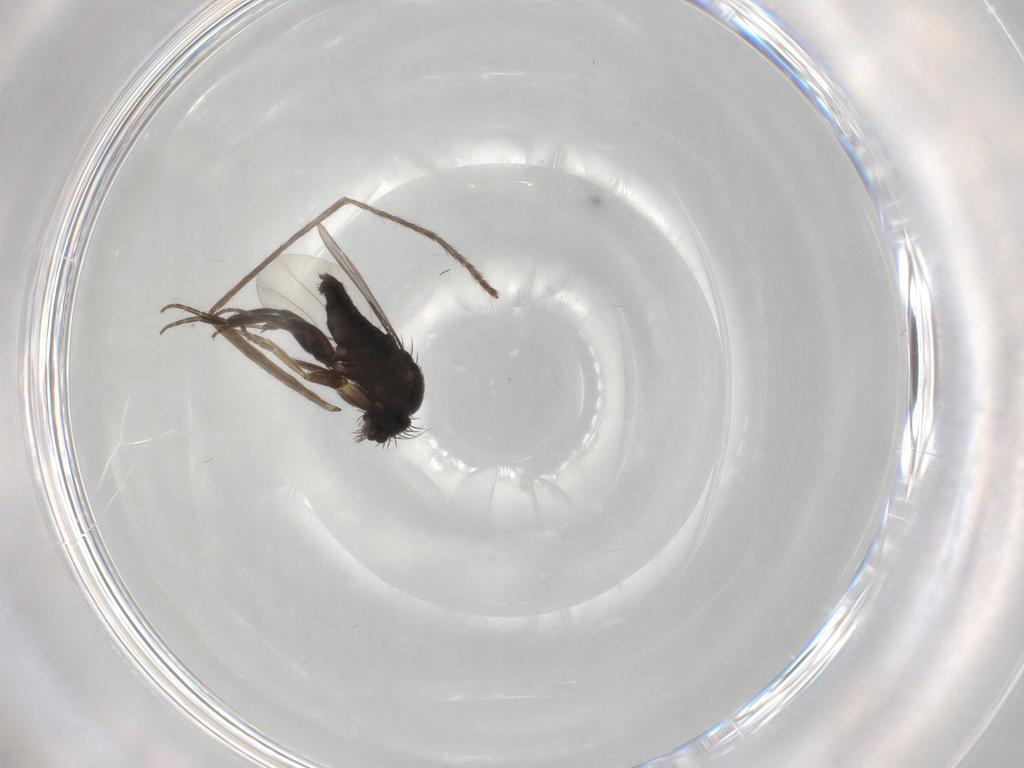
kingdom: Animalia
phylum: Arthropoda
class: Insecta
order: Diptera
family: Phoridae
